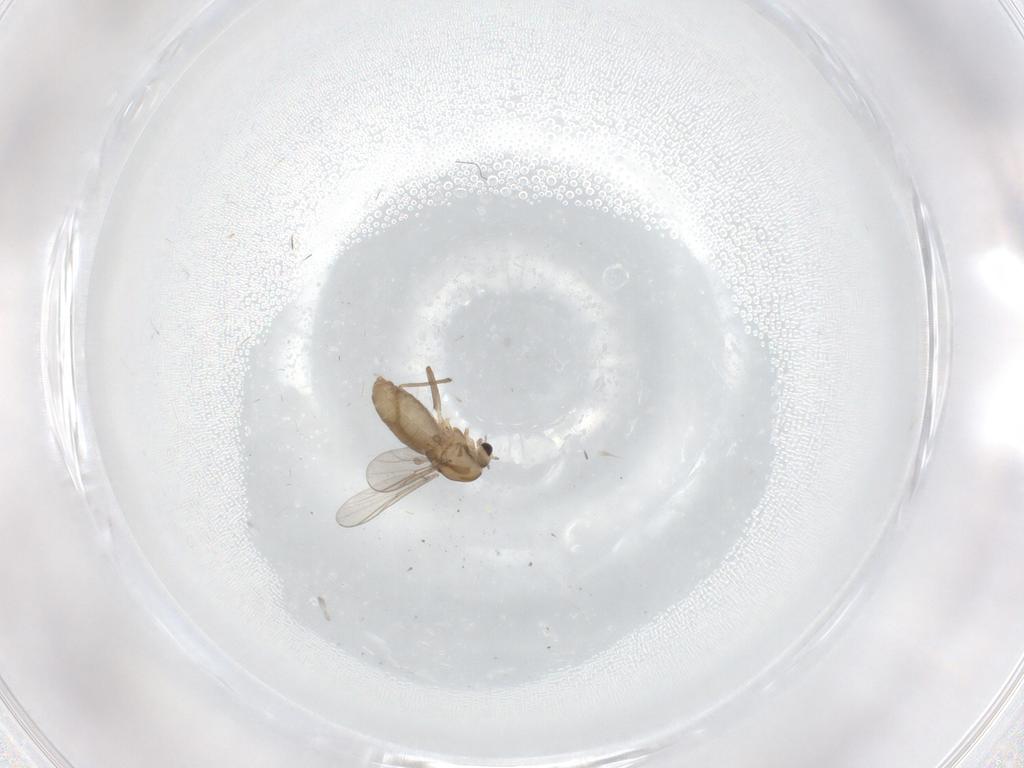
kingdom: Animalia
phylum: Arthropoda
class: Insecta
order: Diptera
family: Chironomidae
